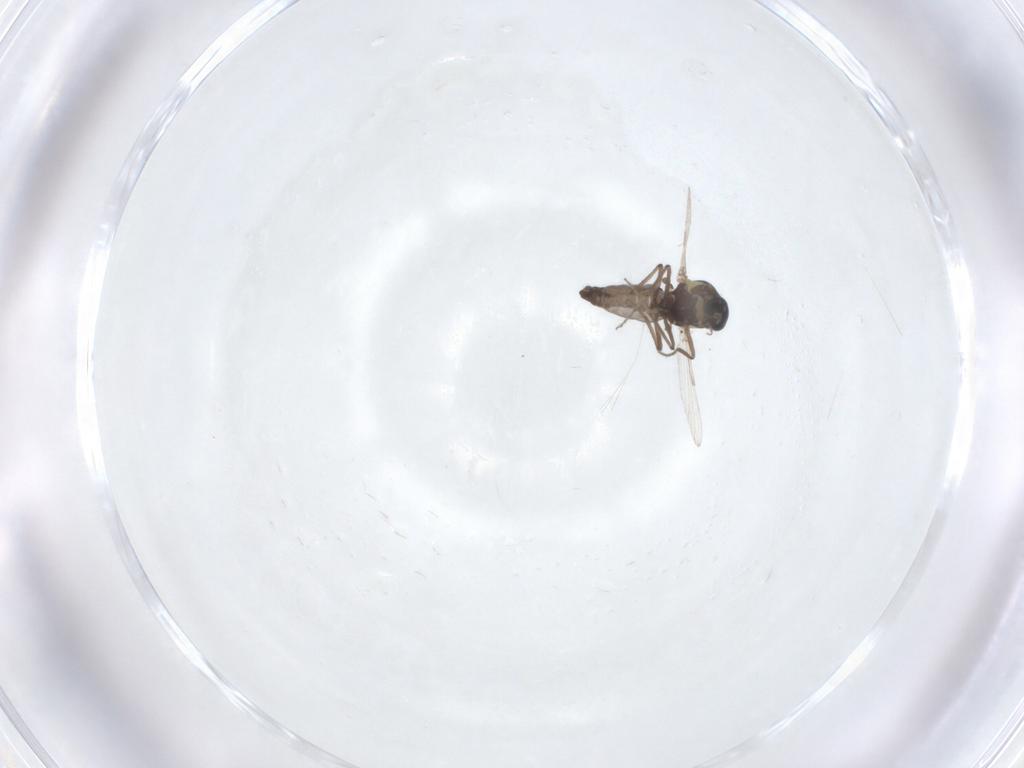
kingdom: Animalia
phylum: Arthropoda
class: Insecta
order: Diptera
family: Ceratopogonidae
